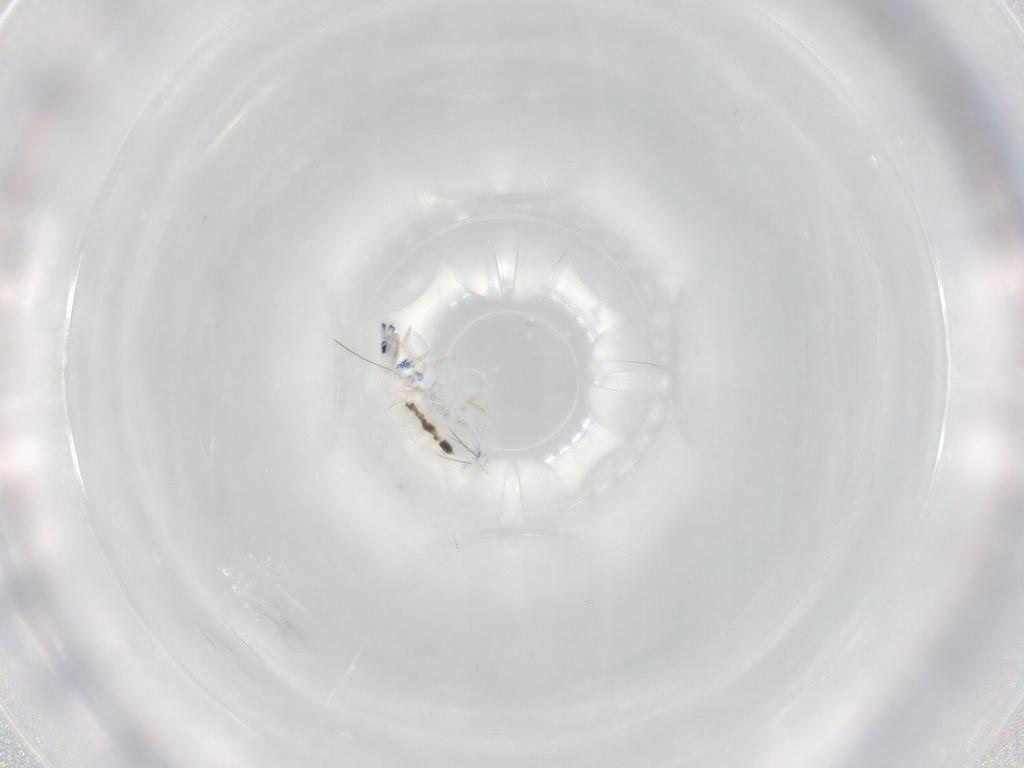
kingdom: Animalia
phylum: Arthropoda
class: Collembola
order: Entomobryomorpha
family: Entomobryidae
